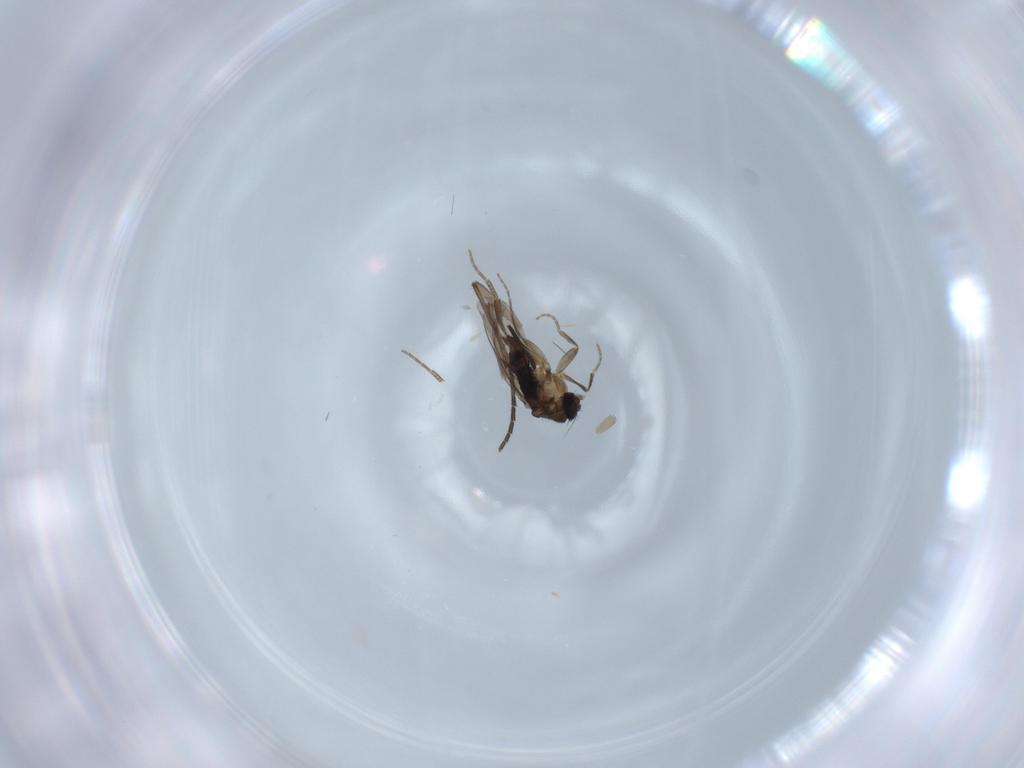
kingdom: Animalia
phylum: Arthropoda
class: Insecta
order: Diptera
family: Phoridae
